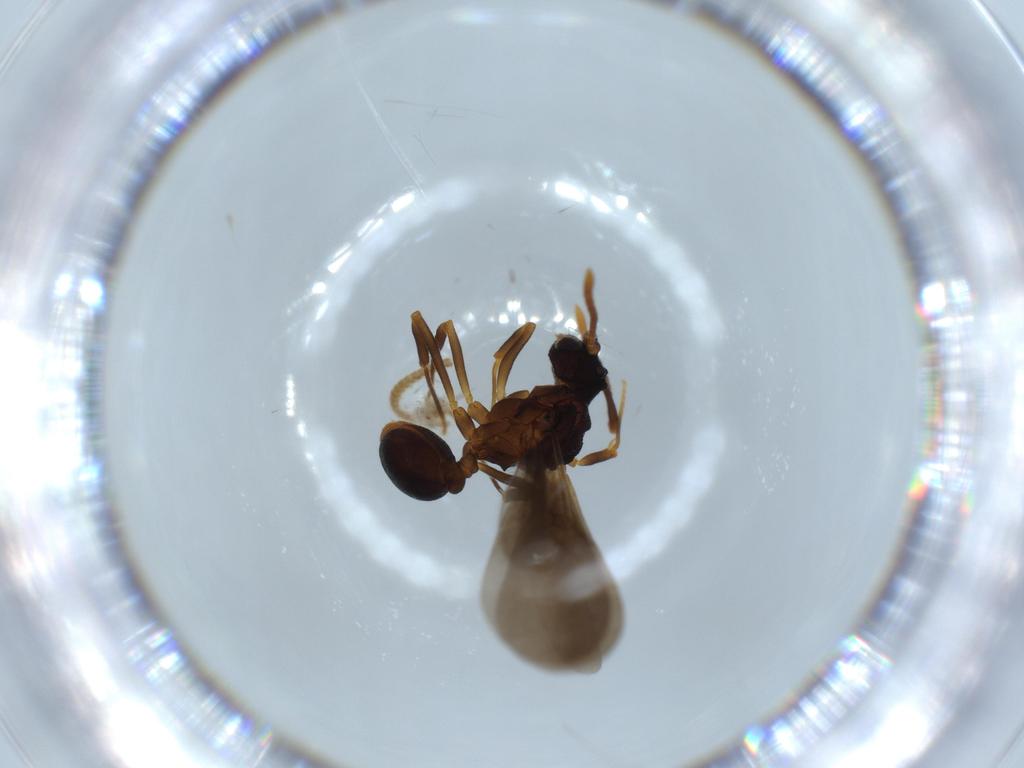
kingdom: Animalia
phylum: Arthropoda
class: Insecta
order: Hymenoptera
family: Formicidae
